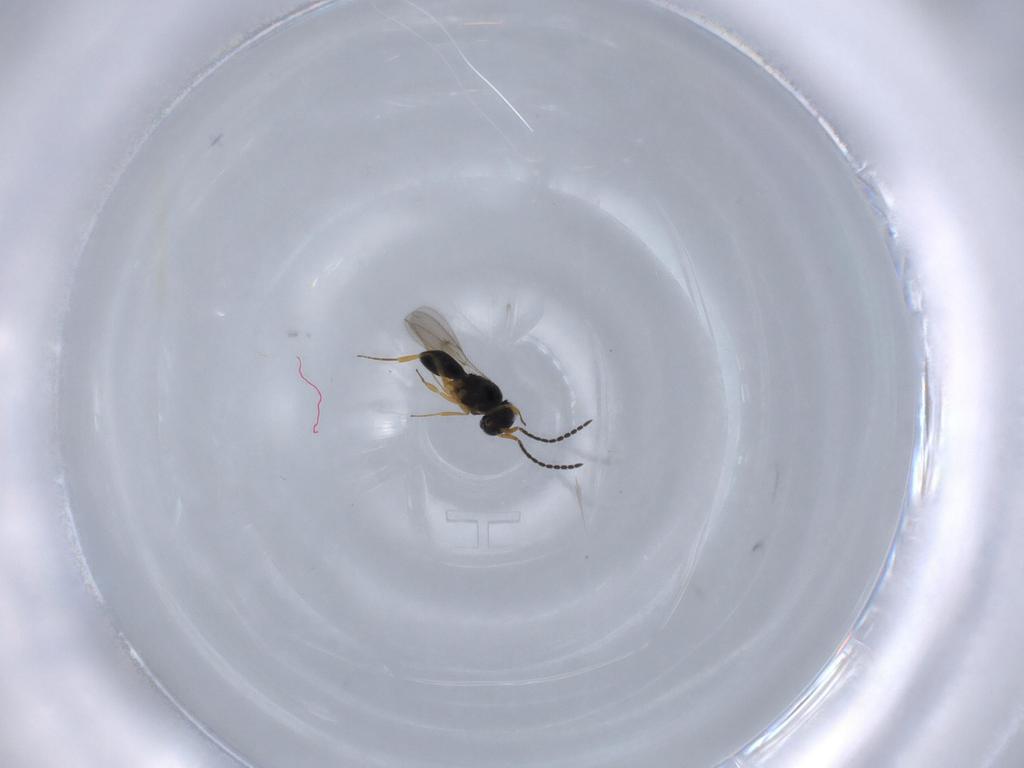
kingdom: Animalia
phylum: Arthropoda
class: Insecta
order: Hymenoptera
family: Scelionidae
